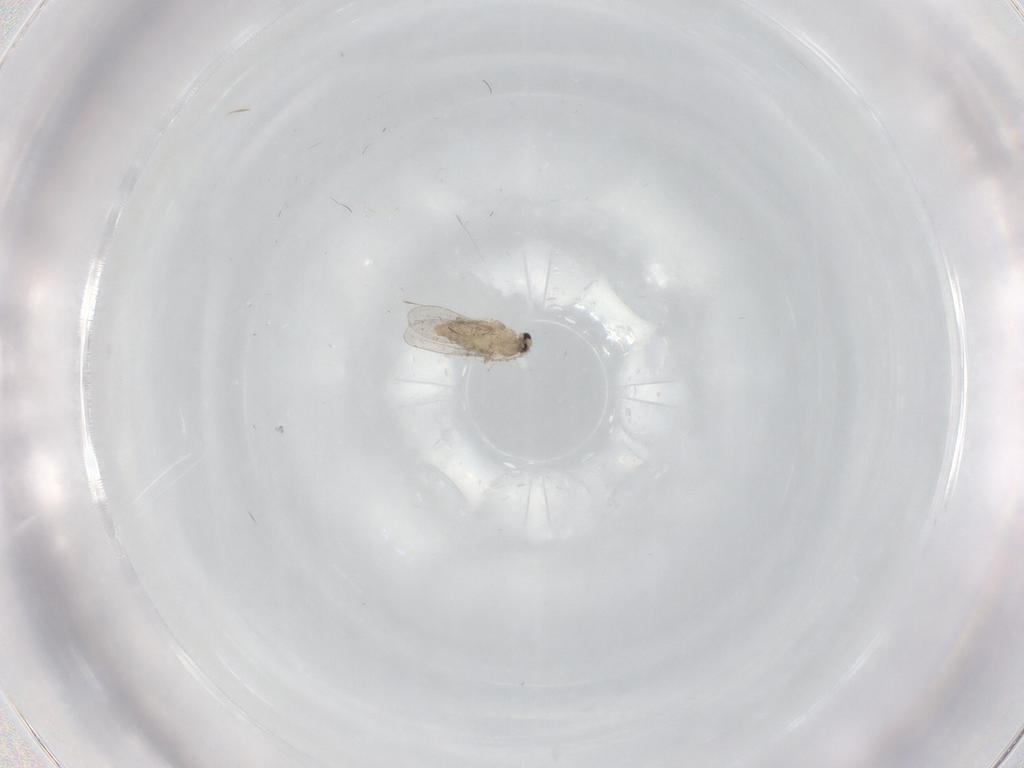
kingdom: Animalia
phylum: Arthropoda
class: Insecta
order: Diptera
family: Cecidomyiidae
